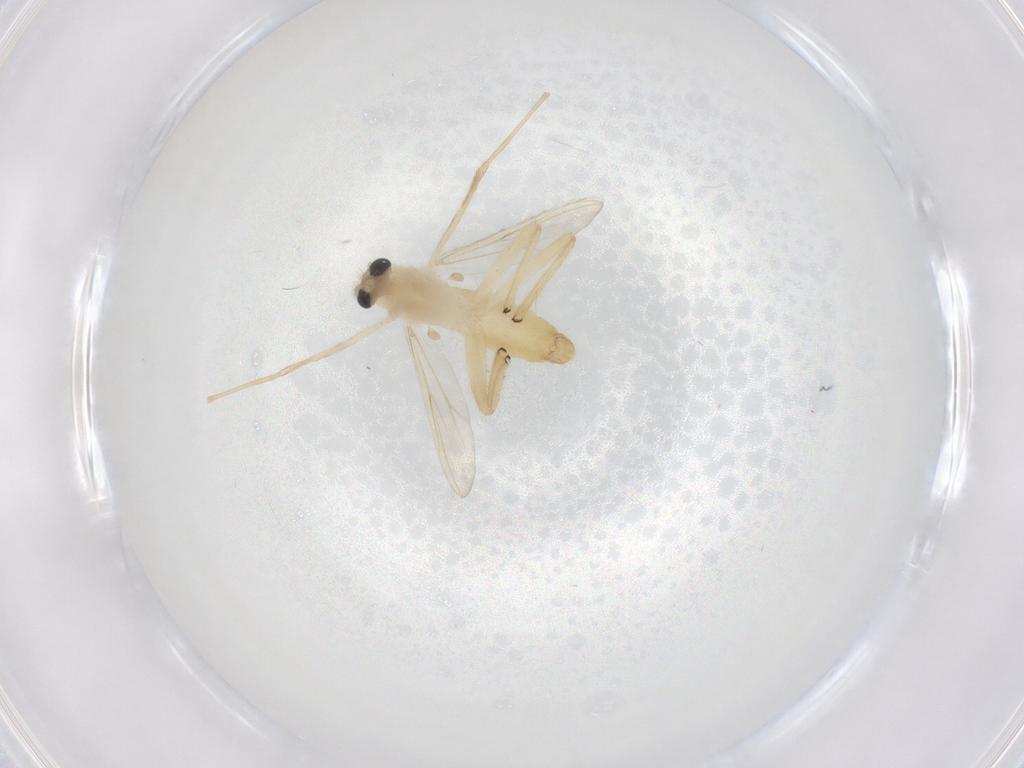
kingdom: Animalia
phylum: Arthropoda
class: Insecta
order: Diptera
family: Chironomidae
